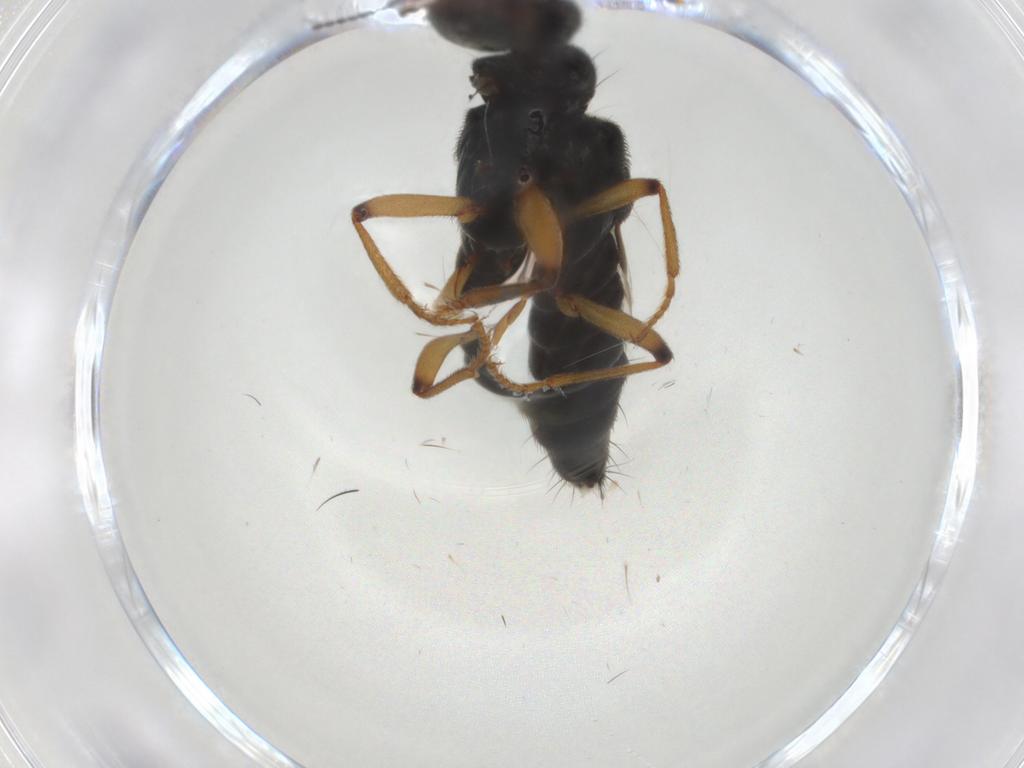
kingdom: Animalia
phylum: Arthropoda
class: Insecta
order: Coleoptera
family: Staphylinidae
